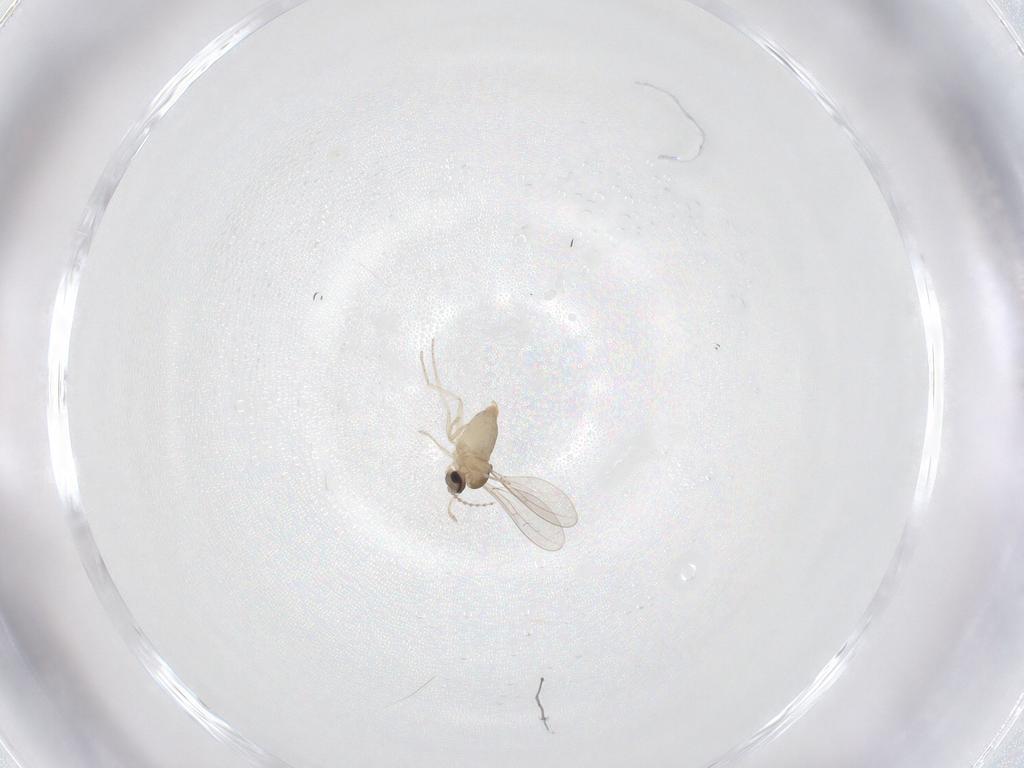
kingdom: Animalia
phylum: Arthropoda
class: Insecta
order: Diptera
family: Cecidomyiidae
